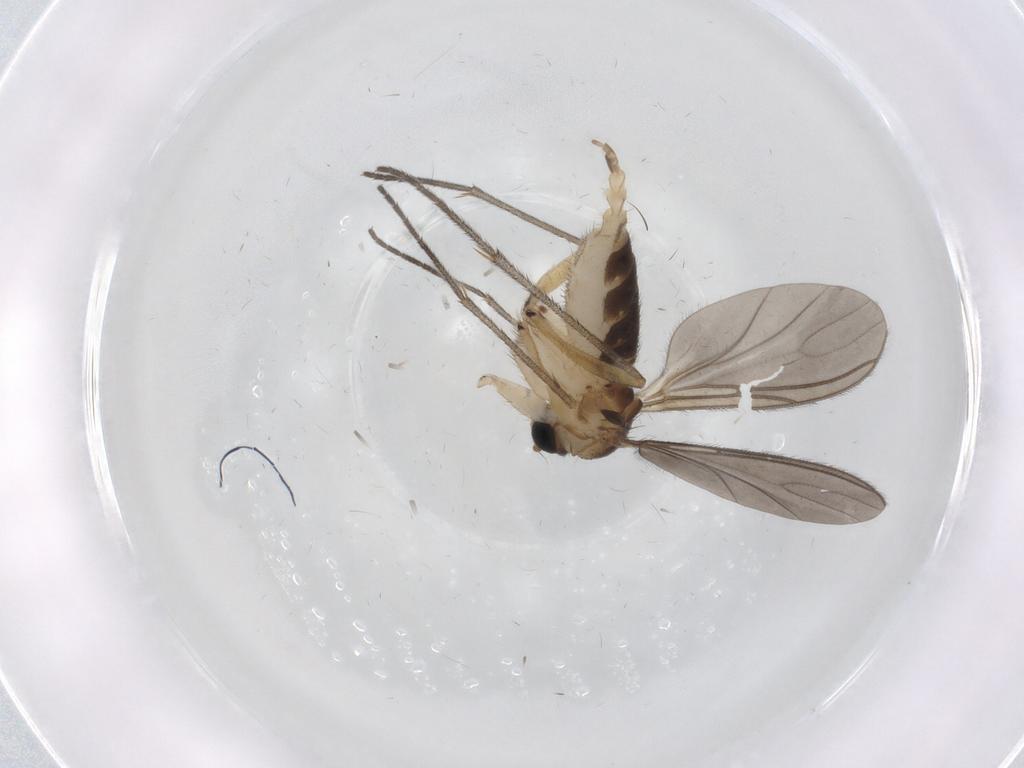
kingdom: Animalia
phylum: Arthropoda
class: Insecta
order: Diptera
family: Sciaridae
